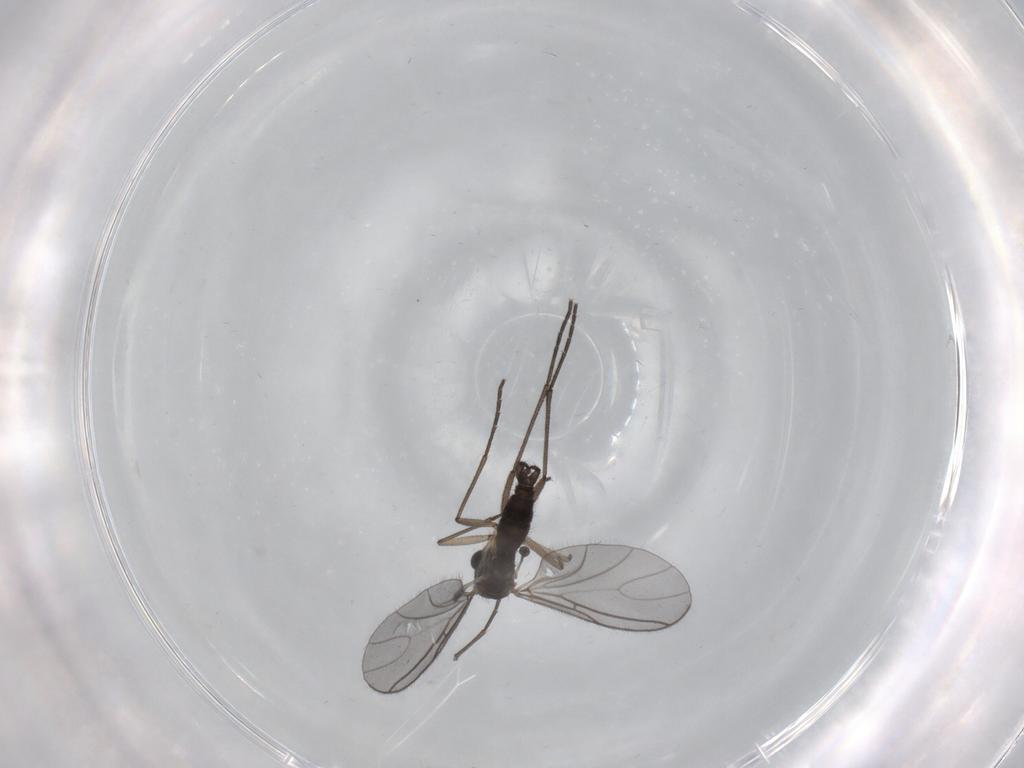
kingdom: Animalia
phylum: Arthropoda
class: Insecta
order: Diptera
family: Sciaridae
